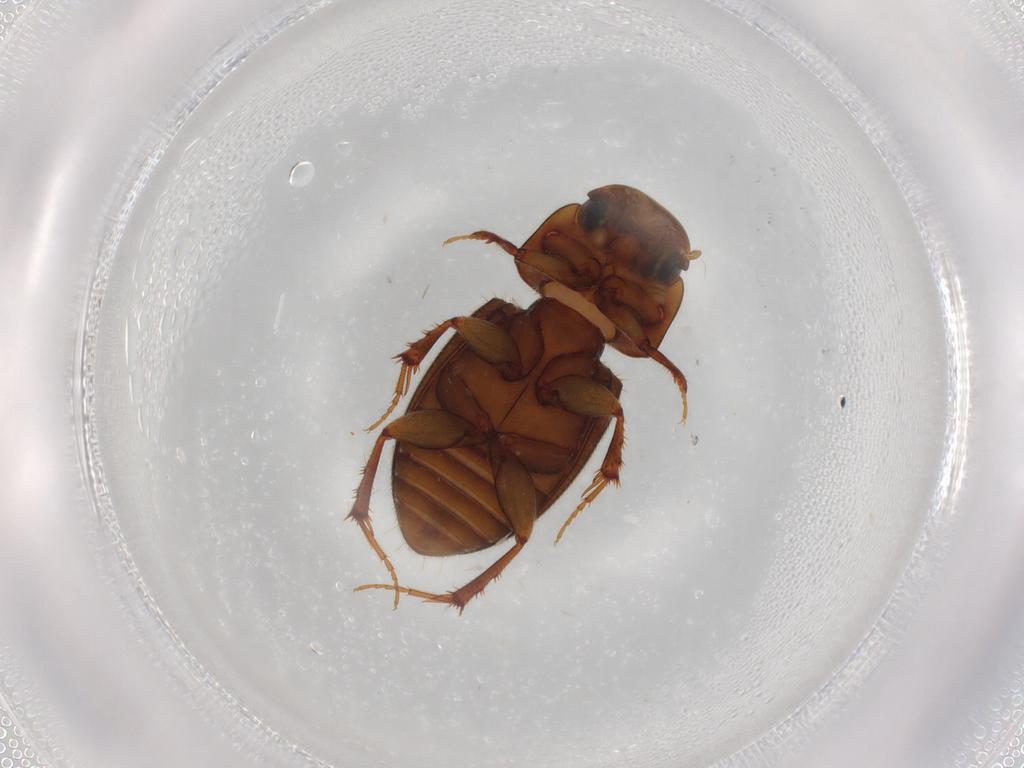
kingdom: Animalia
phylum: Arthropoda
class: Insecta
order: Coleoptera
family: Scarabaeidae
